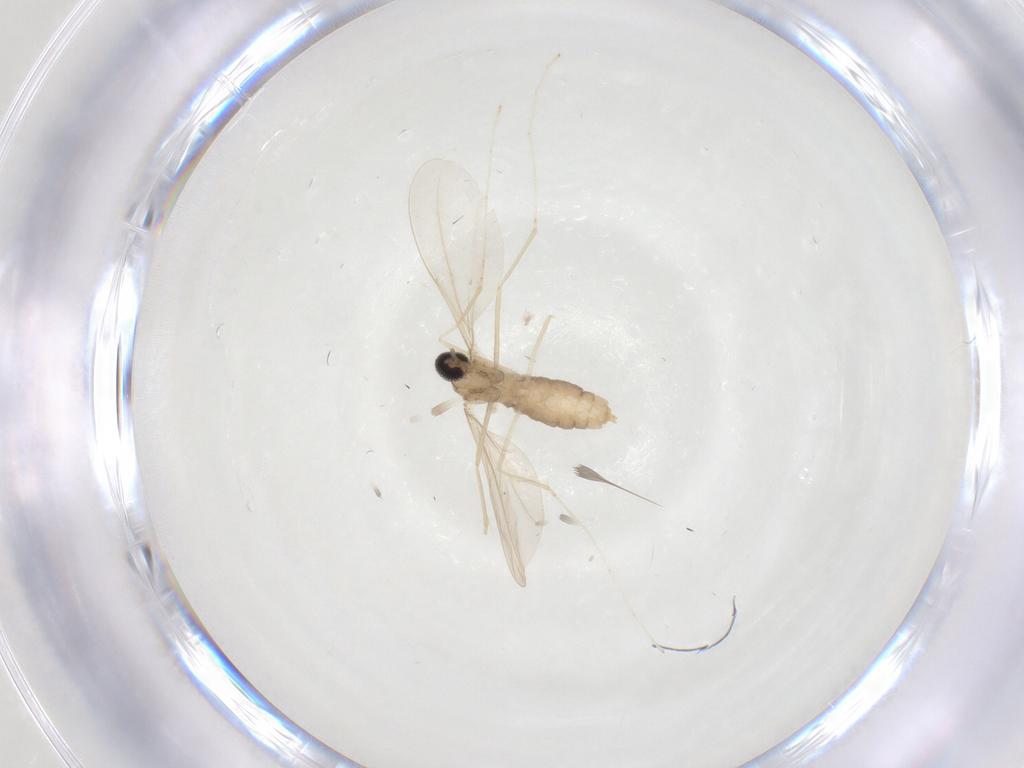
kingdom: Animalia
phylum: Arthropoda
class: Insecta
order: Diptera
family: Cecidomyiidae
